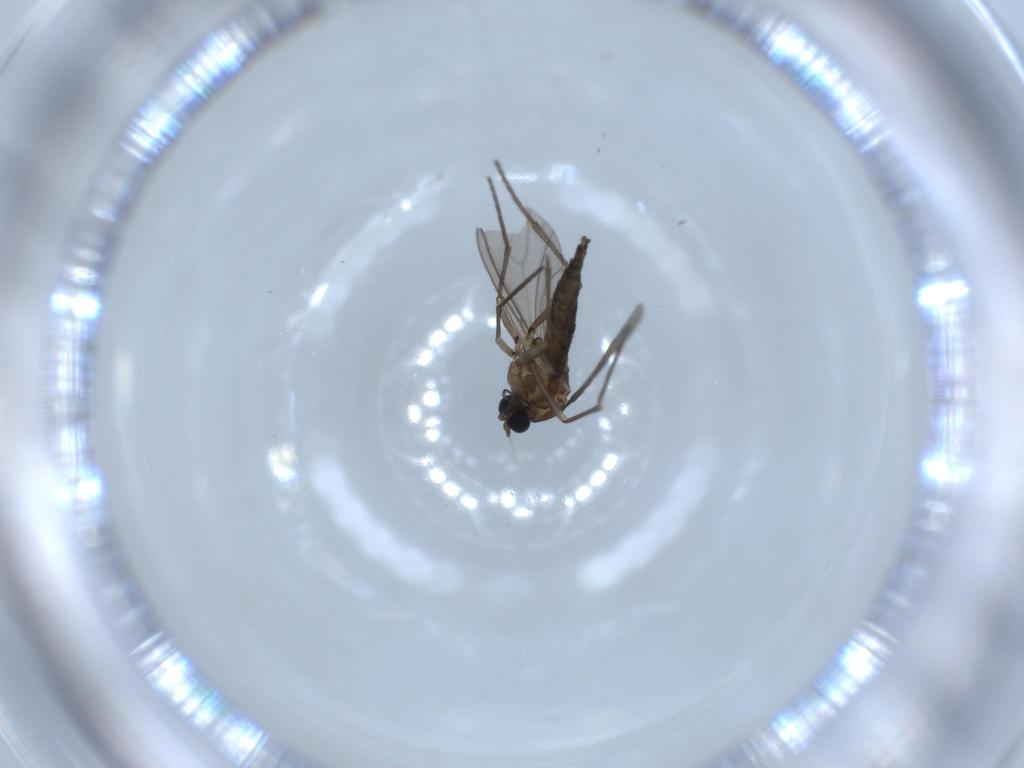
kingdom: Animalia
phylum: Arthropoda
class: Insecta
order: Diptera
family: Sciaridae
